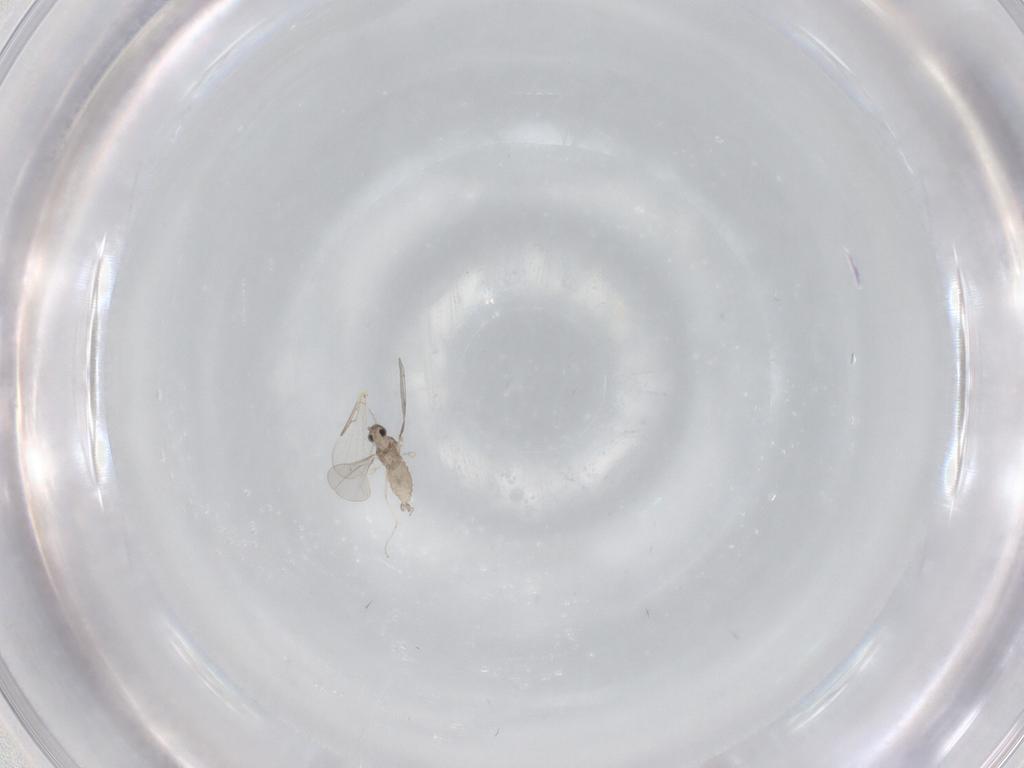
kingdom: Animalia
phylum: Arthropoda
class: Insecta
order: Diptera
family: Cecidomyiidae
